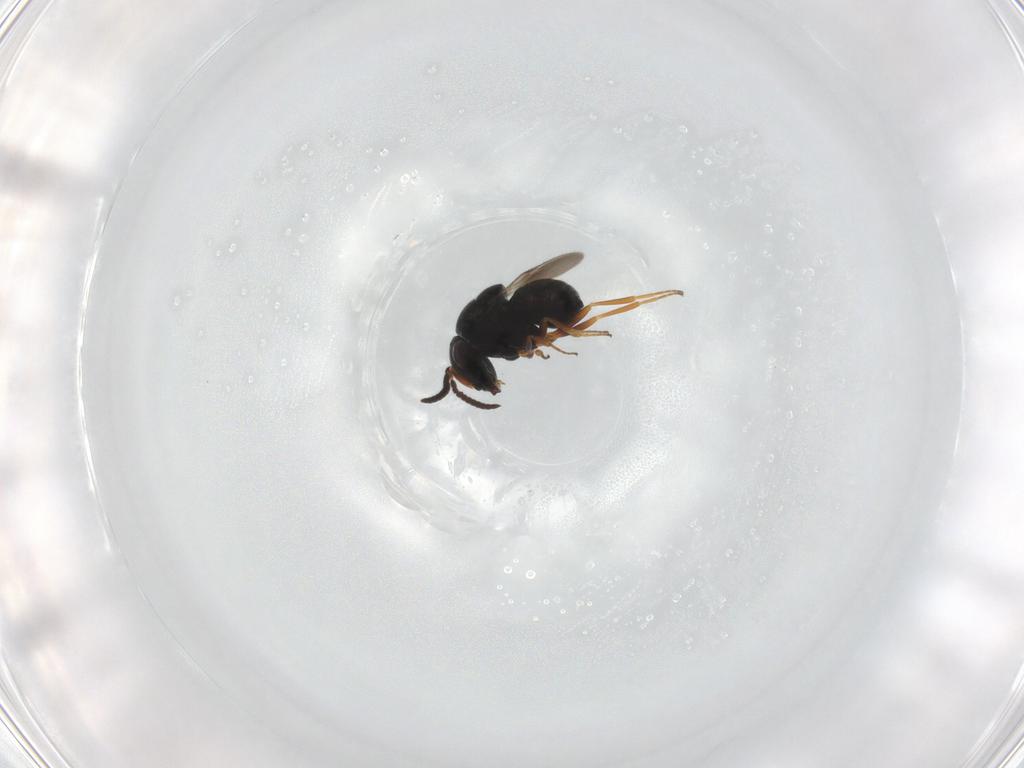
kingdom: Animalia
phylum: Arthropoda
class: Insecta
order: Hymenoptera
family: Scelionidae
